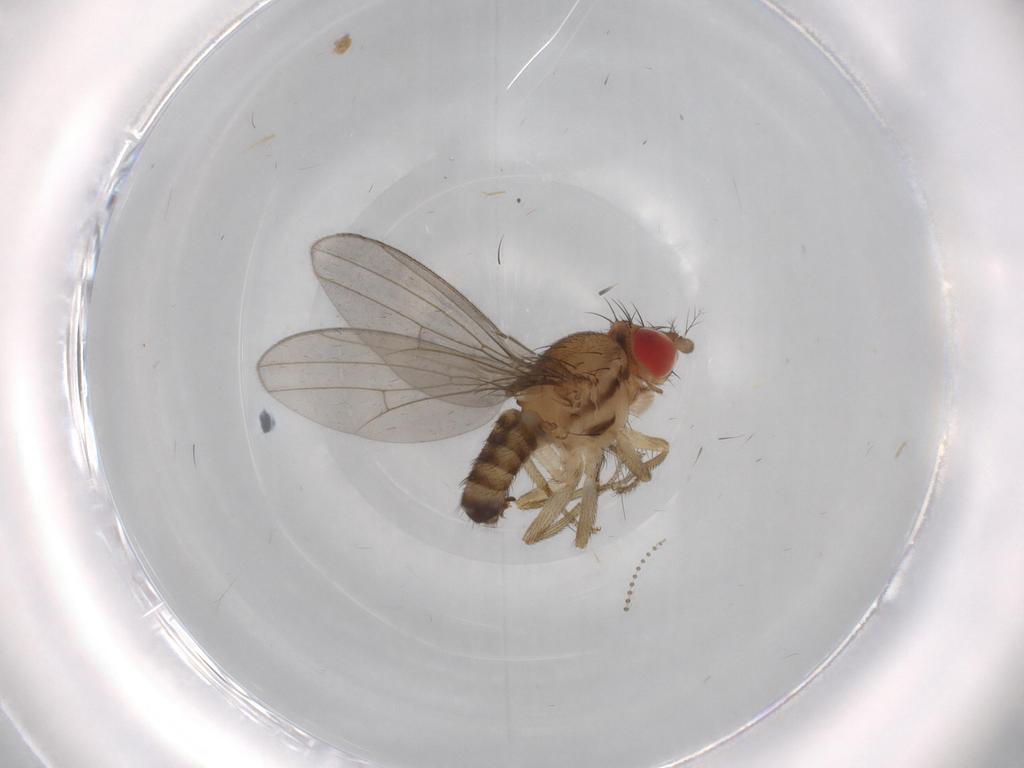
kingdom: Animalia
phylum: Arthropoda
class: Insecta
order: Diptera
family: Drosophilidae
